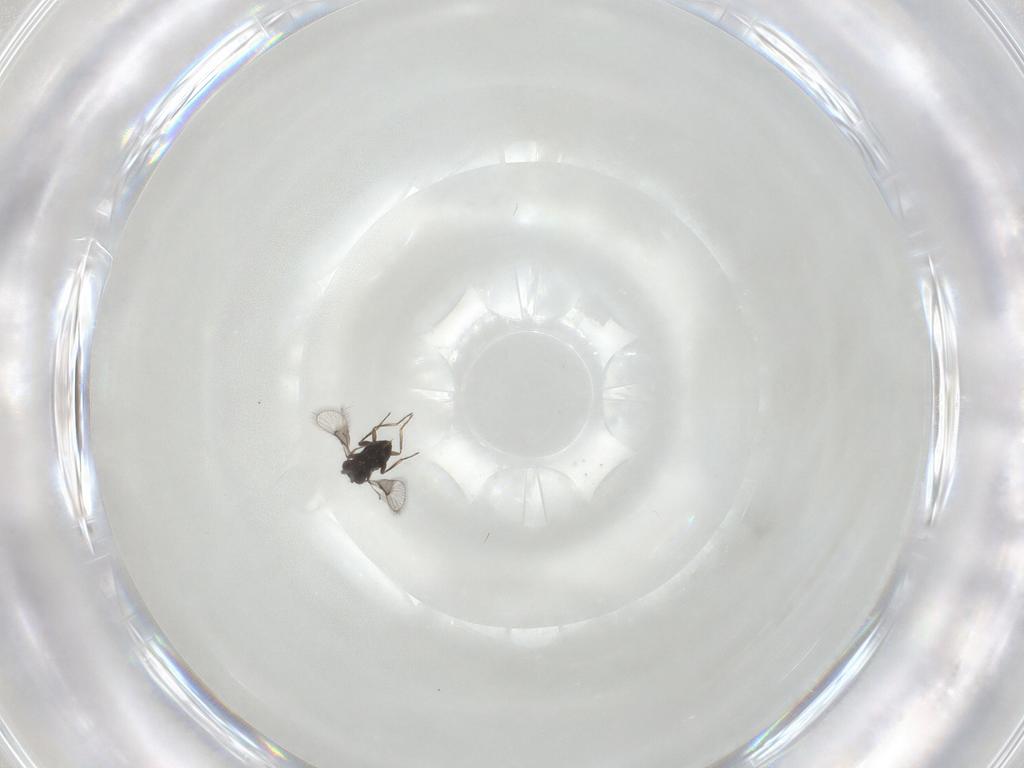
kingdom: Animalia
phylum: Arthropoda
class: Insecta
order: Hymenoptera
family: Trichogrammatidae
